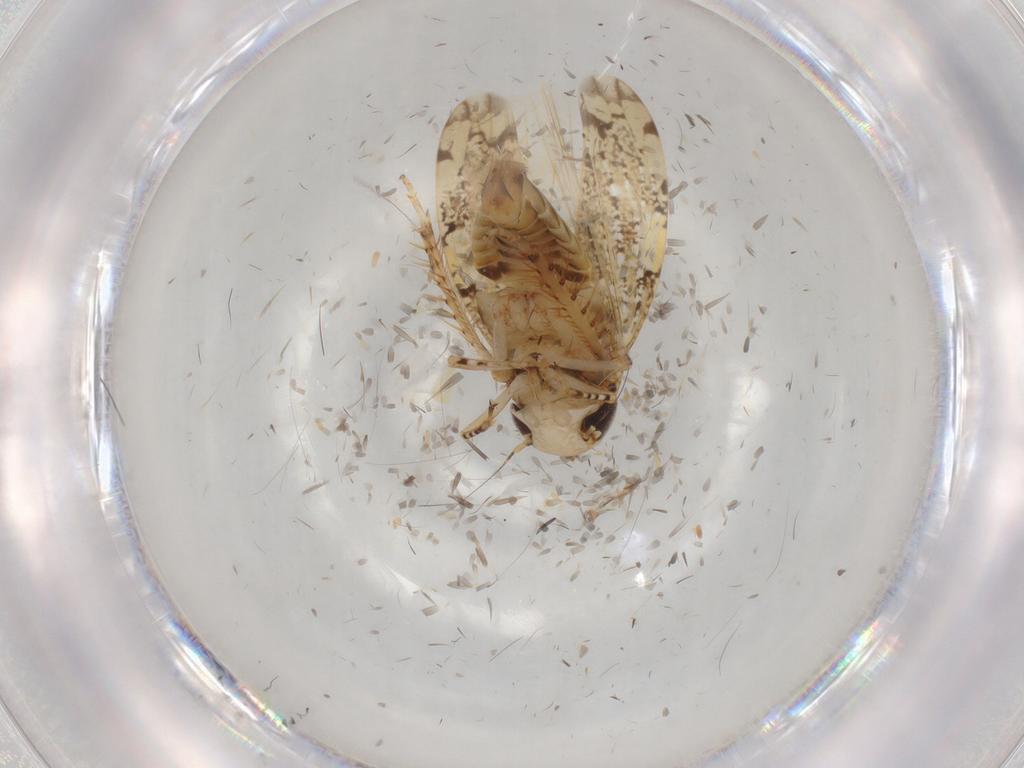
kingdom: Animalia
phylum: Arthropoda
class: Insecta
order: Hemiptera
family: Cicadellidae
